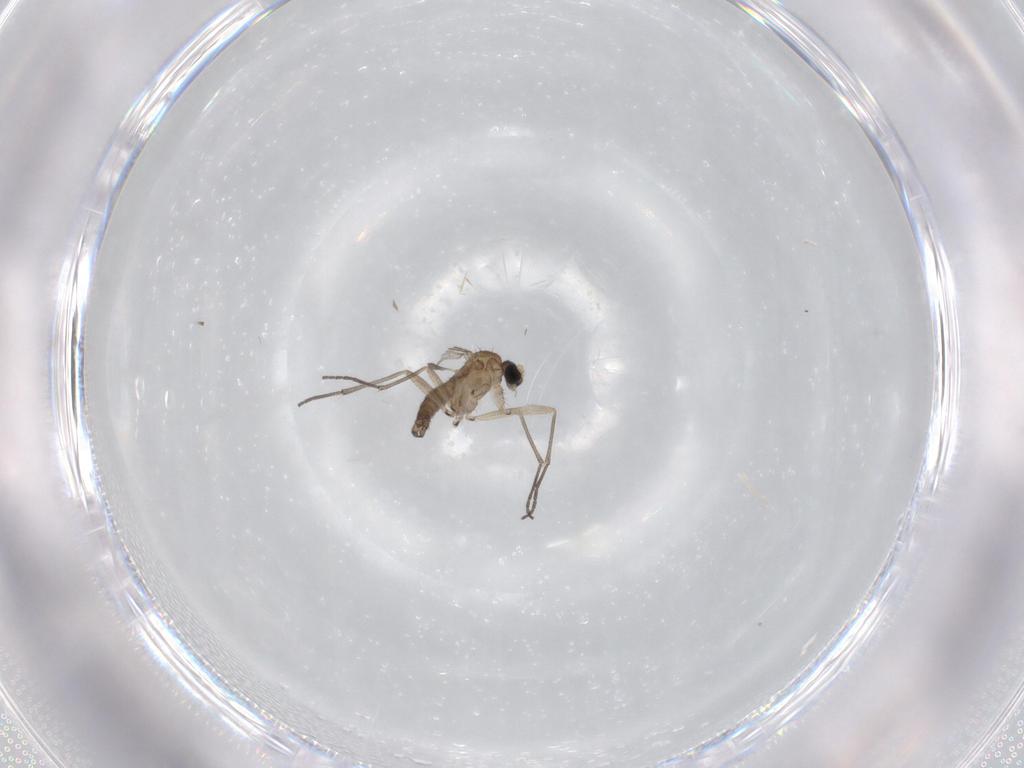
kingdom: Animalia
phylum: Arthropoda
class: Insecta
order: Diptera
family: Sciaridae
